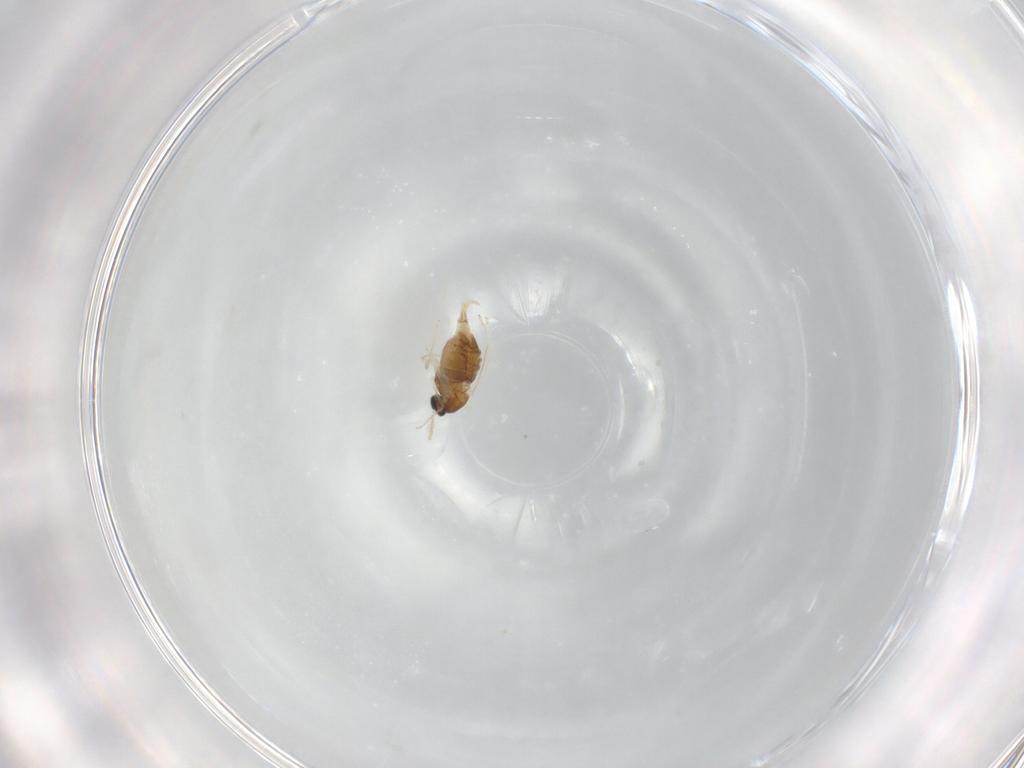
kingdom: Animalia
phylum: Arthropoda
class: Insecta
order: Diptera
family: Cecidomyiidae
